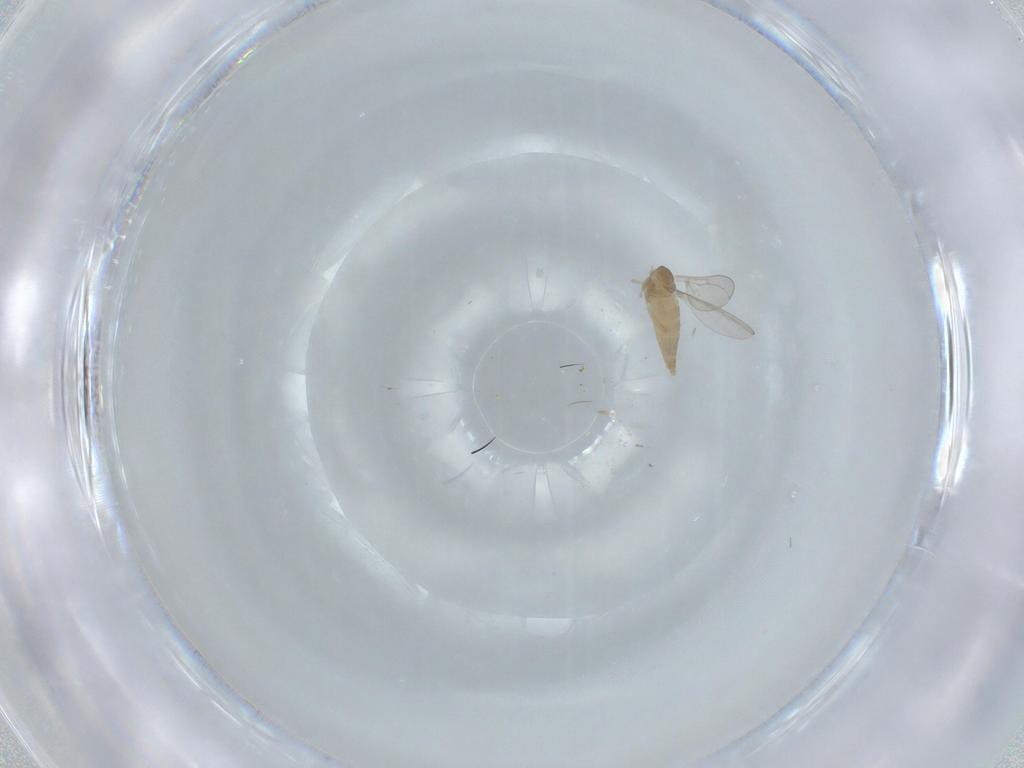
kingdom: Animalia
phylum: Arthropoda
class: Insecta
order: Diptera
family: Cecidomyiidae
